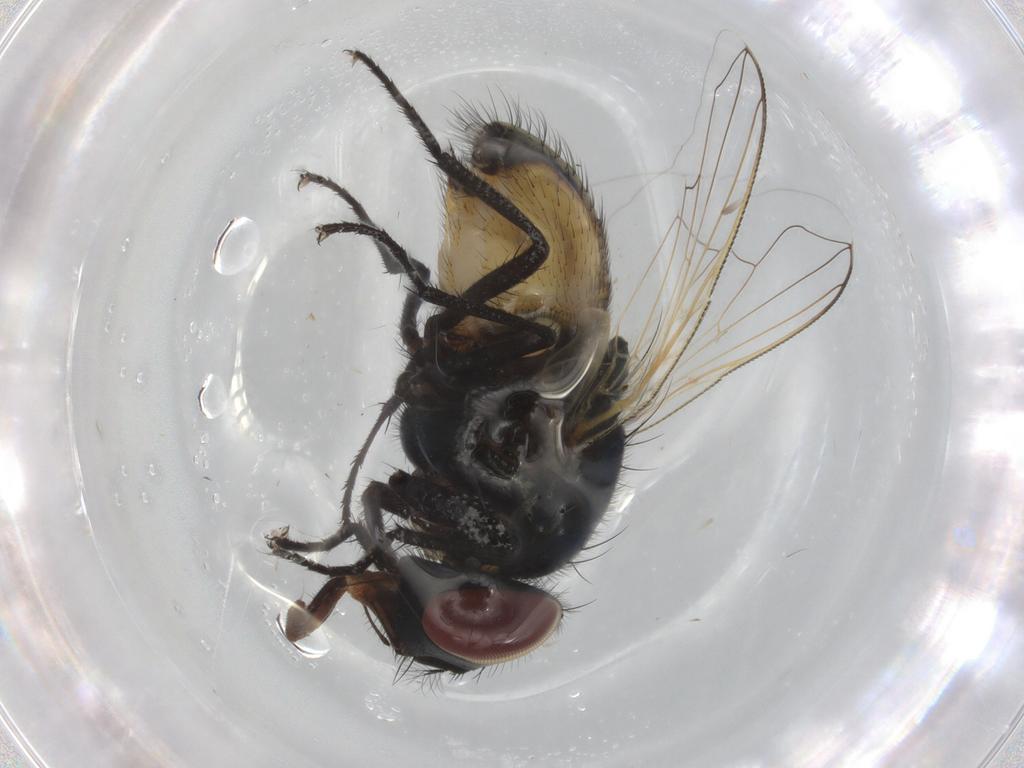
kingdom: Animalia
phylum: Arthropoda
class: Insecta
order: Diptera
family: Muscidae
